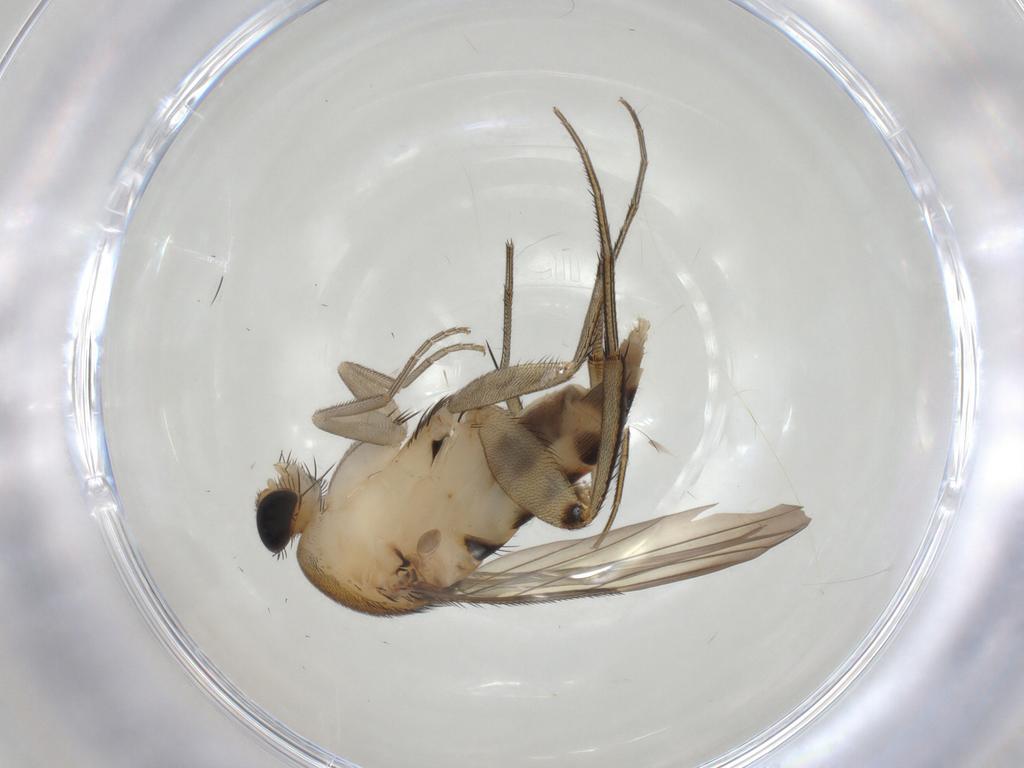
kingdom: Animalia
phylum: Arthropoda
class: Insecta
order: Diptera
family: Phoridae
